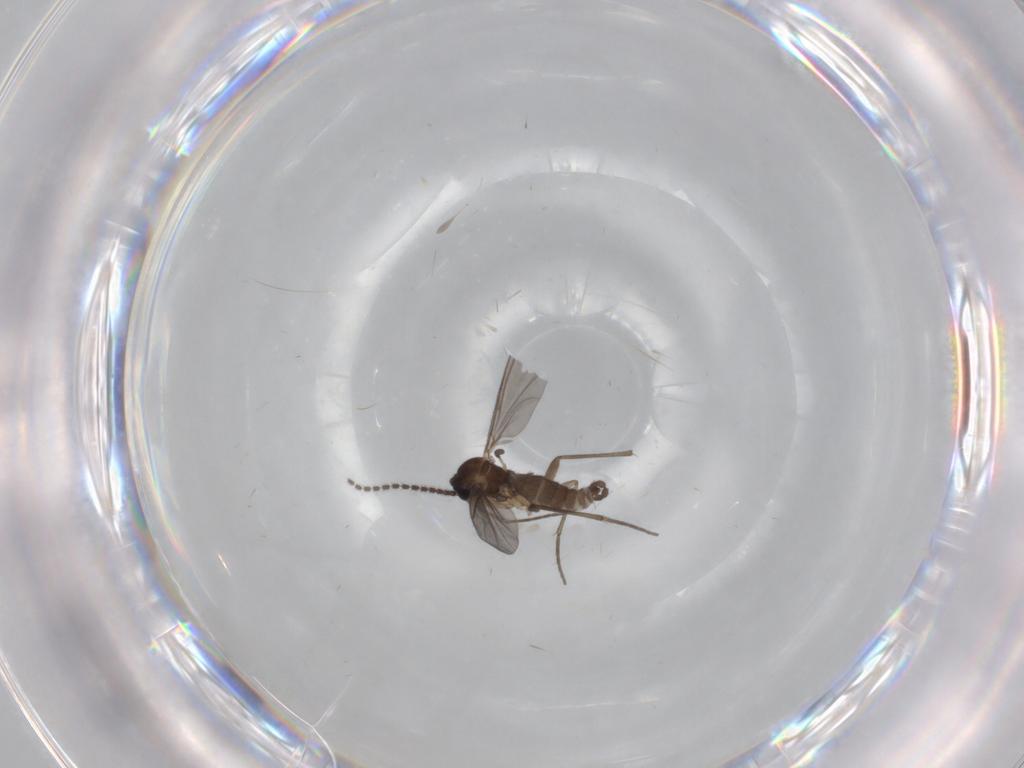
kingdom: Animalia
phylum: Arthropoda
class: Insecta
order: Diptera
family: Sciaridae
